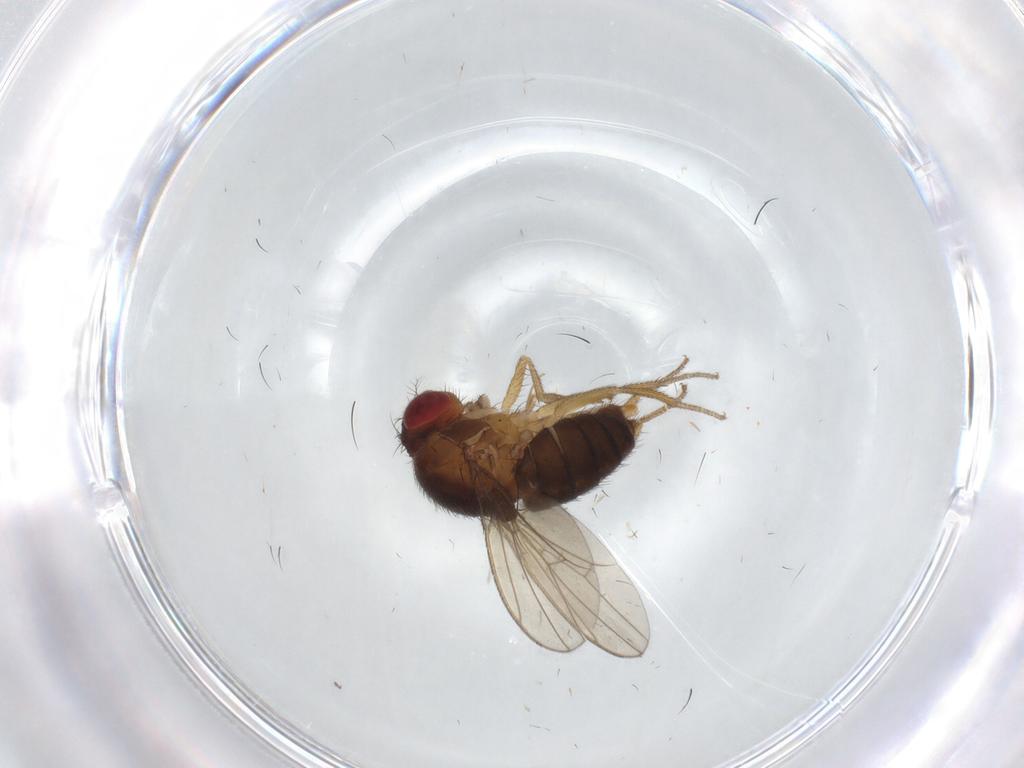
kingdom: Animalia
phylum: Arthropoda
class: Insecta
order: Diptera
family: Drosophilidae
